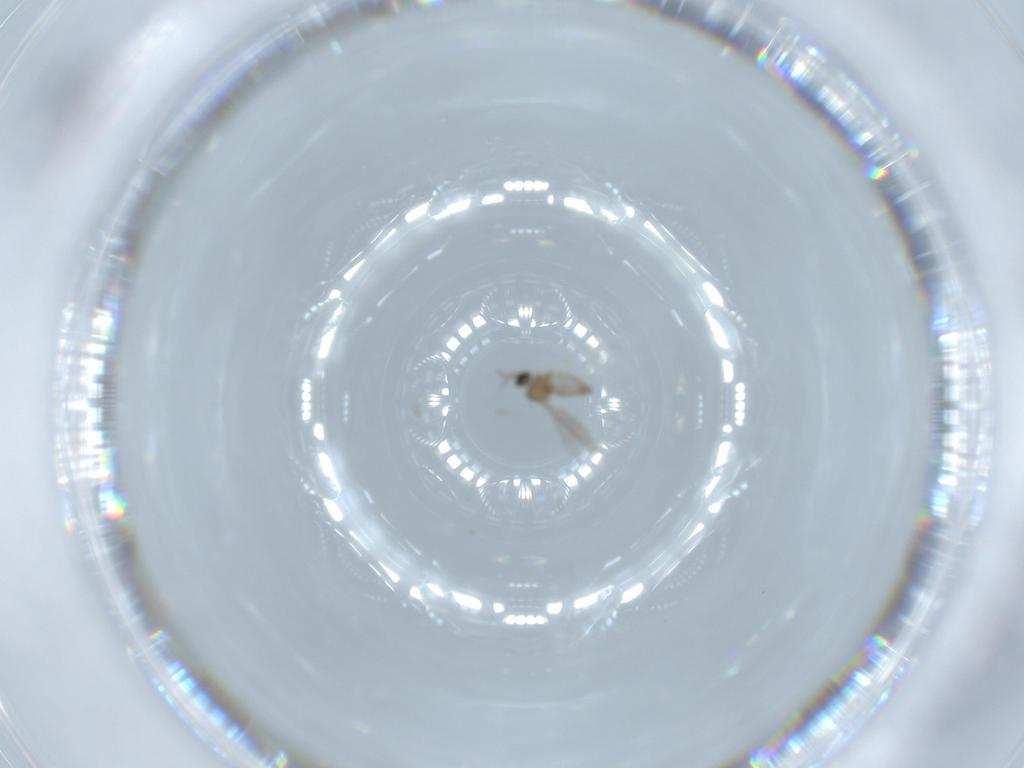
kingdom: Animalia
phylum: Arthropoda
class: Insecta
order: Diptera
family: Cecidomyiidae
